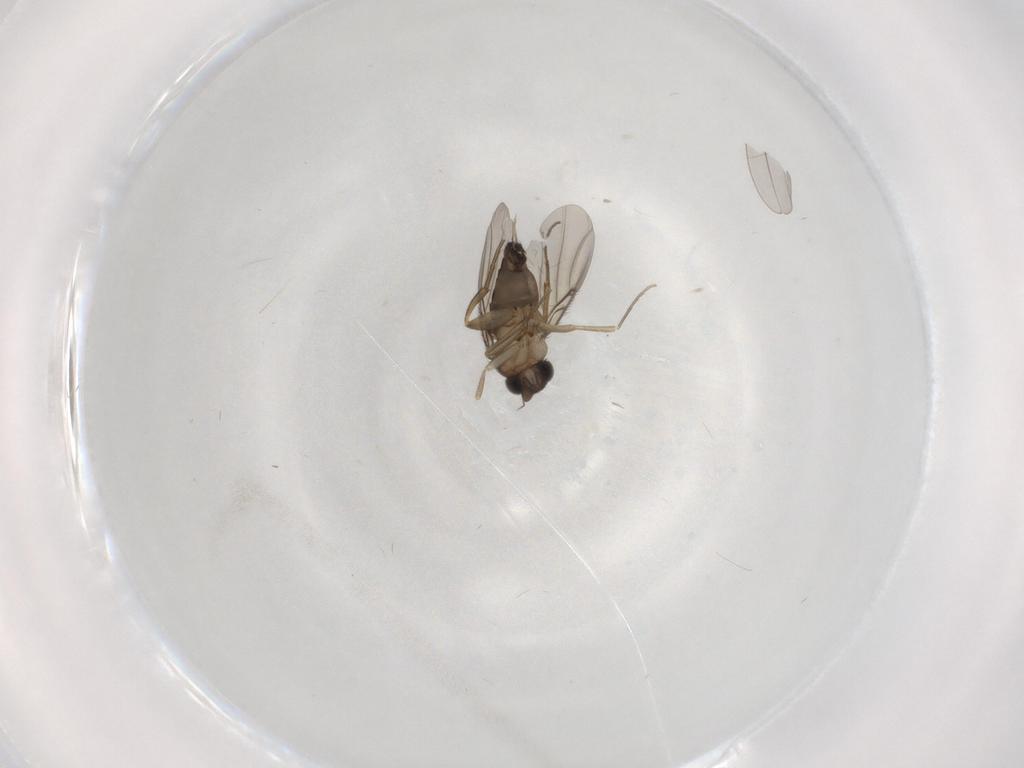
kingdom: Animalia
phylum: Arthropoda
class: Insecta
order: Diptera
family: Cecidomyiidae
